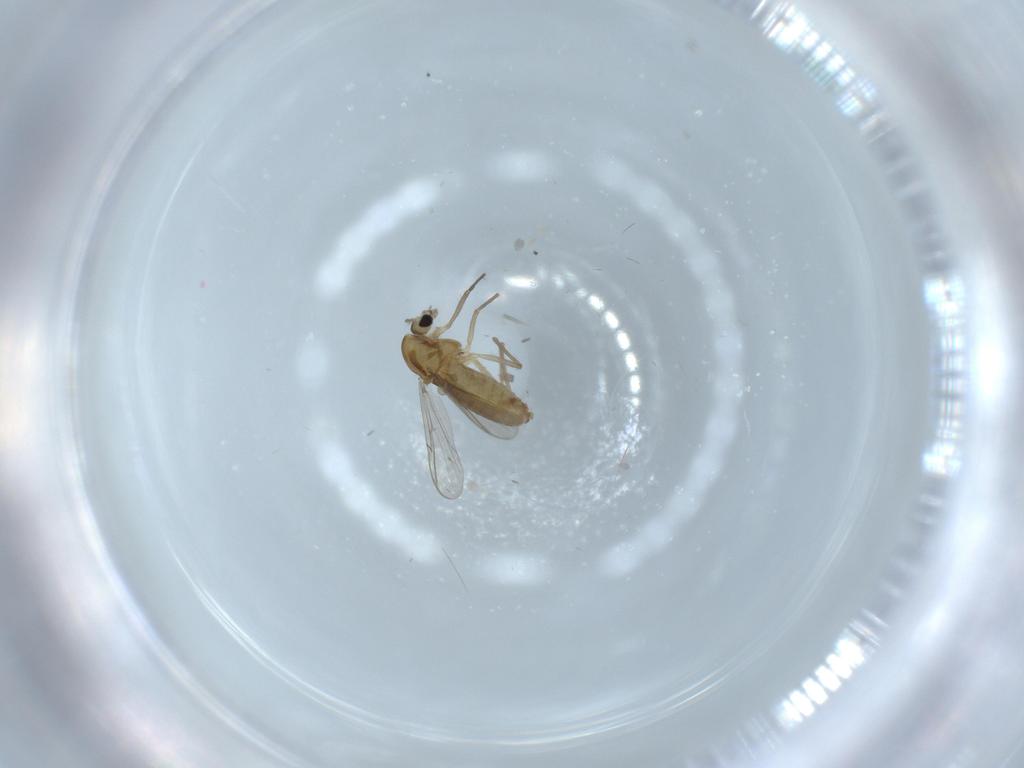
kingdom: Animalia
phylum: Arthropoda
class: Insecta
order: Diptera
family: Chironomidae
